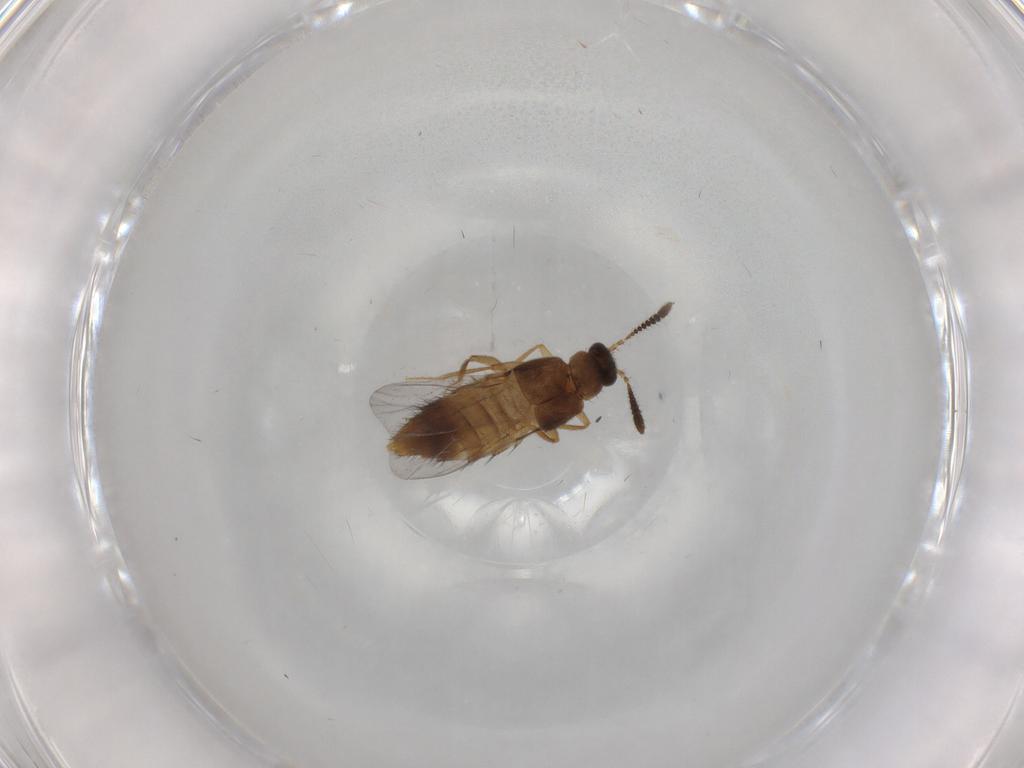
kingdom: Animalia
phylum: Arthropoda
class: Insecta
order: Coleoptera
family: Staphylinidae
